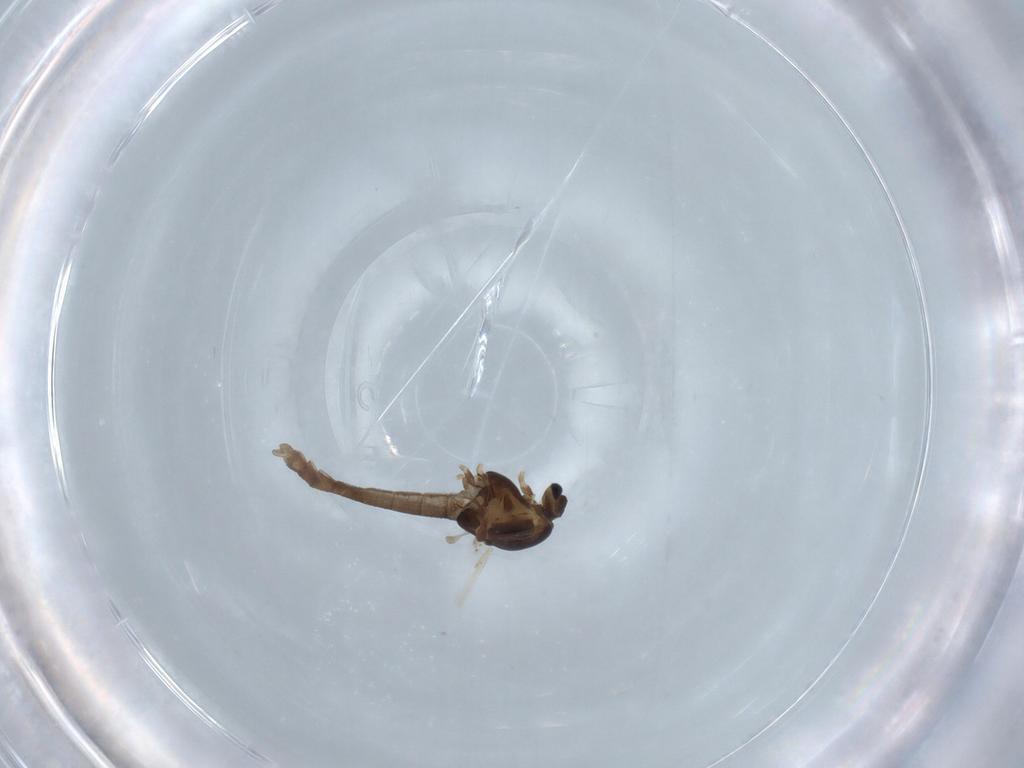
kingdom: Animalia
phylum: Arthropoda
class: Insecta
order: Diptera
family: Chironomidae
